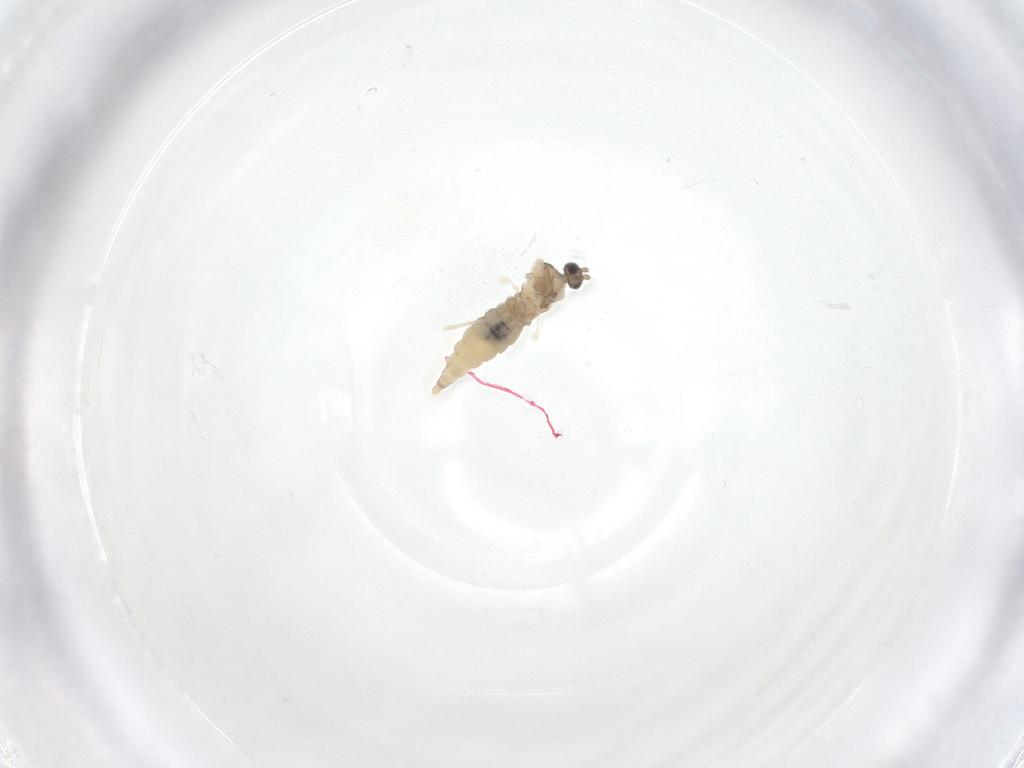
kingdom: Animalia
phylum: Arthropoda
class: Insecta
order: Diptera
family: Cecidomyiidae
